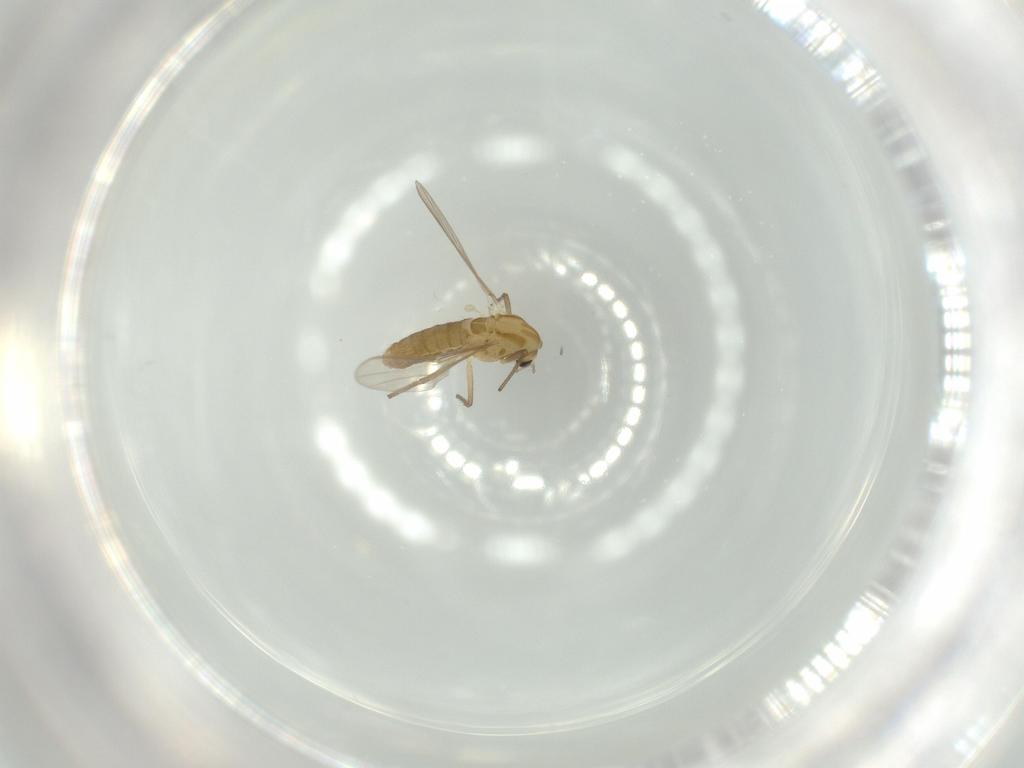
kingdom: Animalia
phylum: Arthropoda
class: Insecta
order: Diptera
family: Chironomidae
